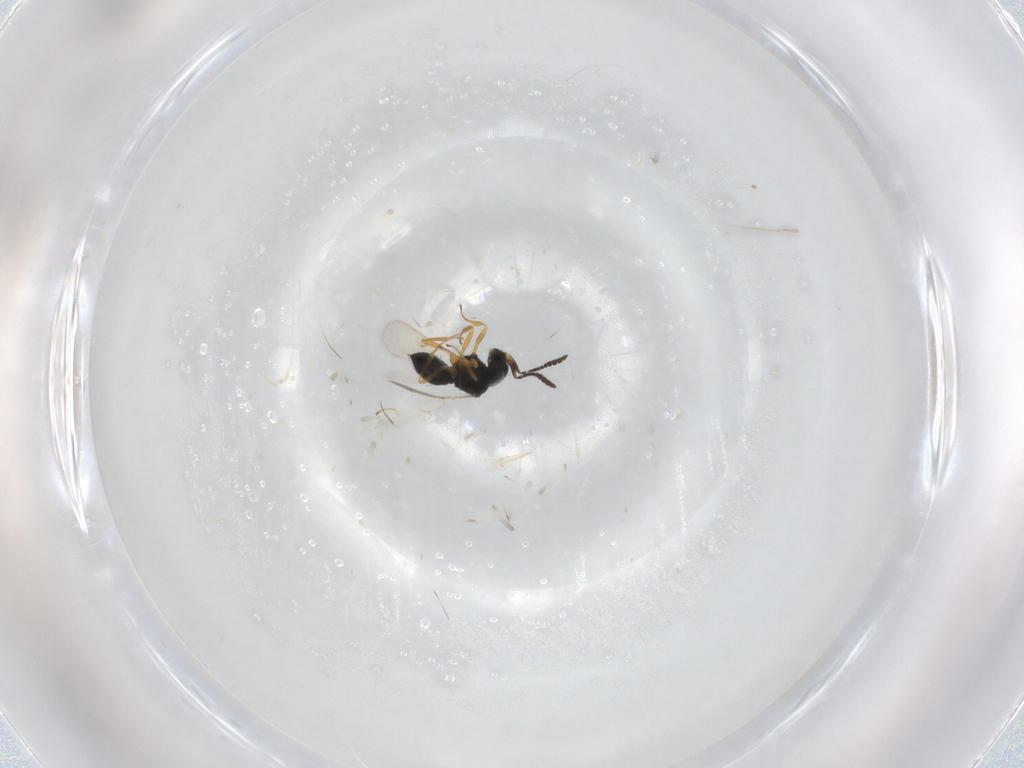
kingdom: Animalia
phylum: Arthropoda
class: Insecta
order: Hymenoptera
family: Scelionidae
